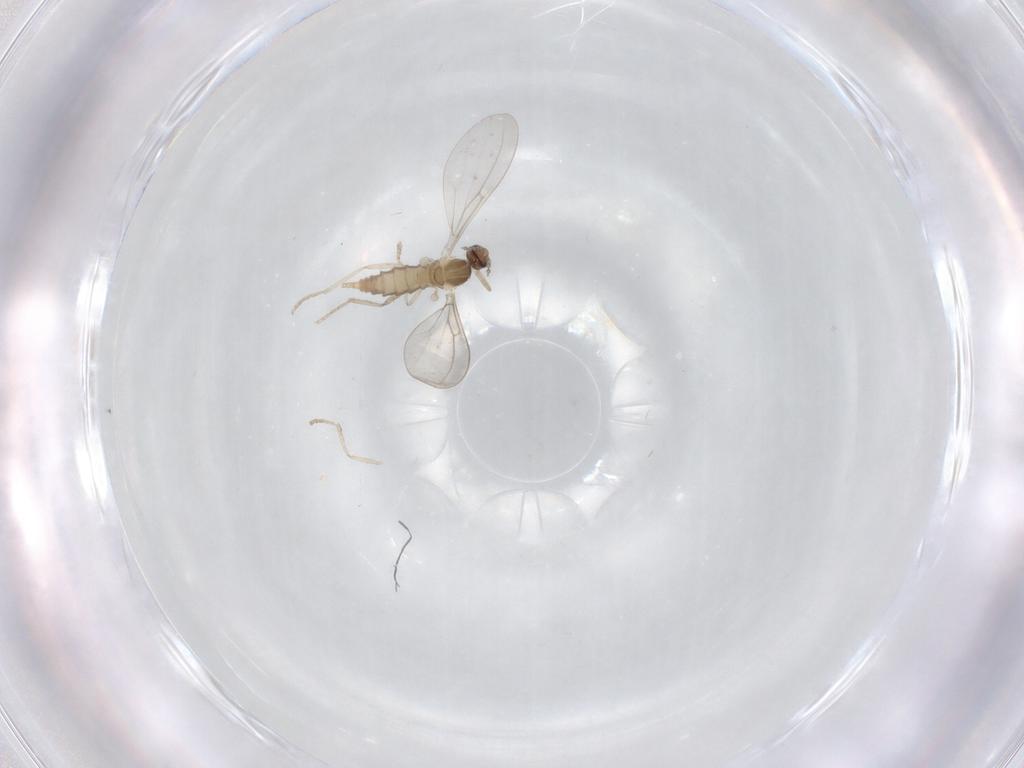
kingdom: Animalia
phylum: Arthropoda
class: Insecta
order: Diptera
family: Cecidomyiidae
